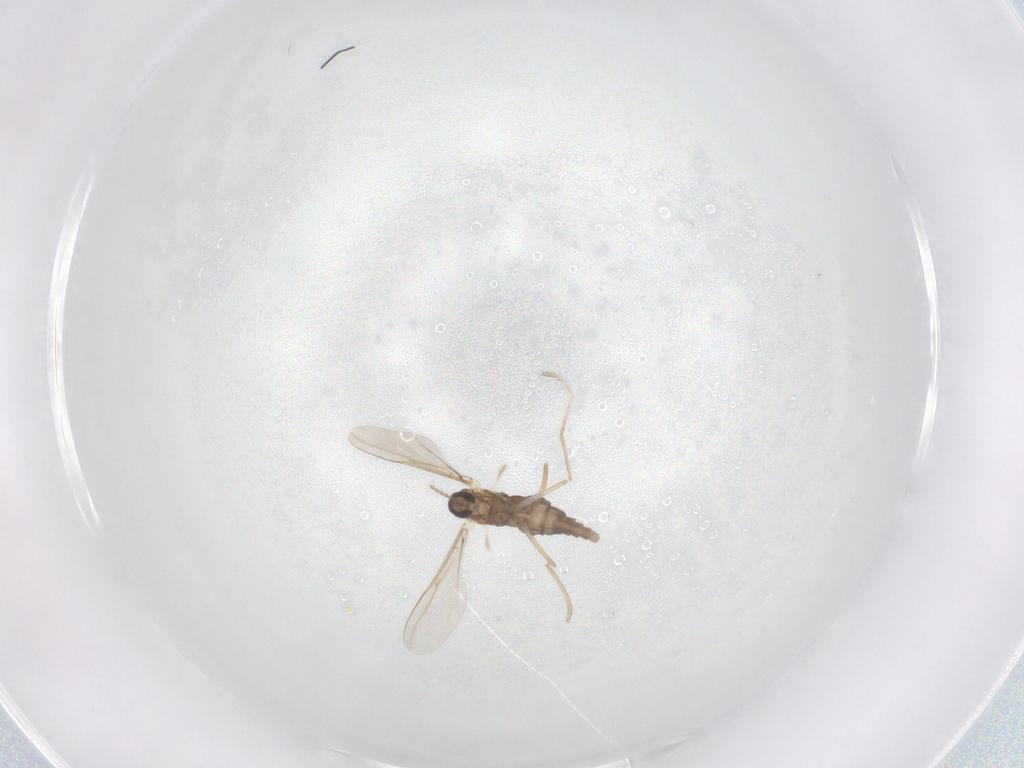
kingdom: Animalia
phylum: Arthropoda
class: Insecta
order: Diptera
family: Cecidomyiidae
